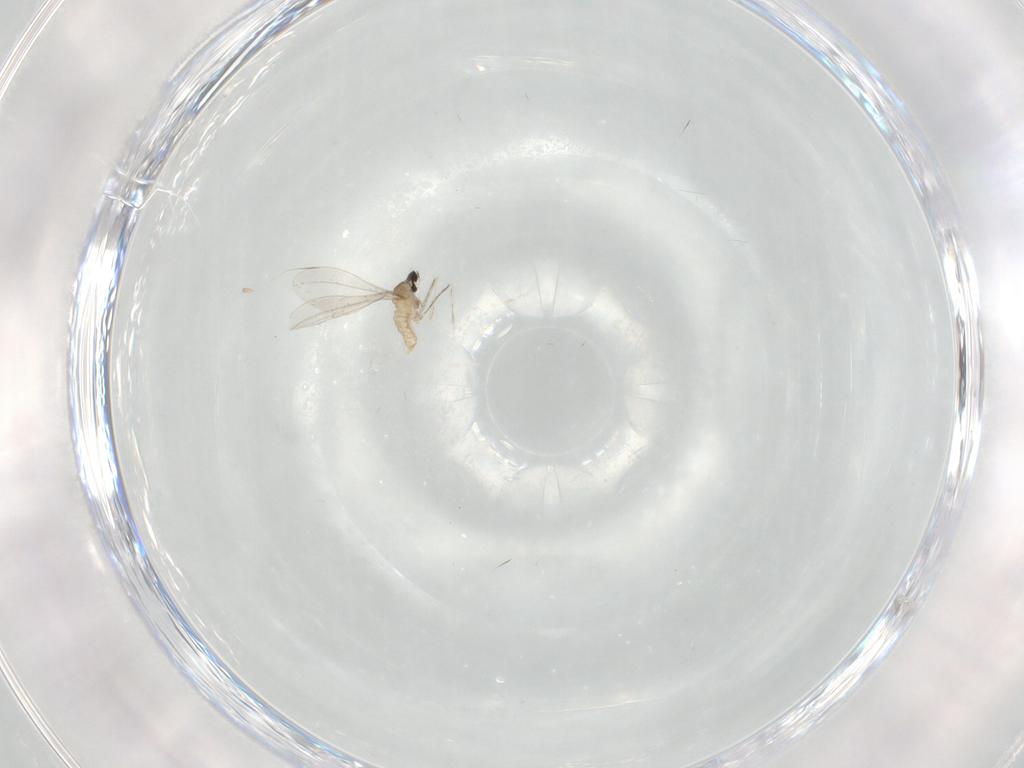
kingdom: Animalia
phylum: Arthropoda
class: Insecta
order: Diptera
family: Cecidomyiidae
